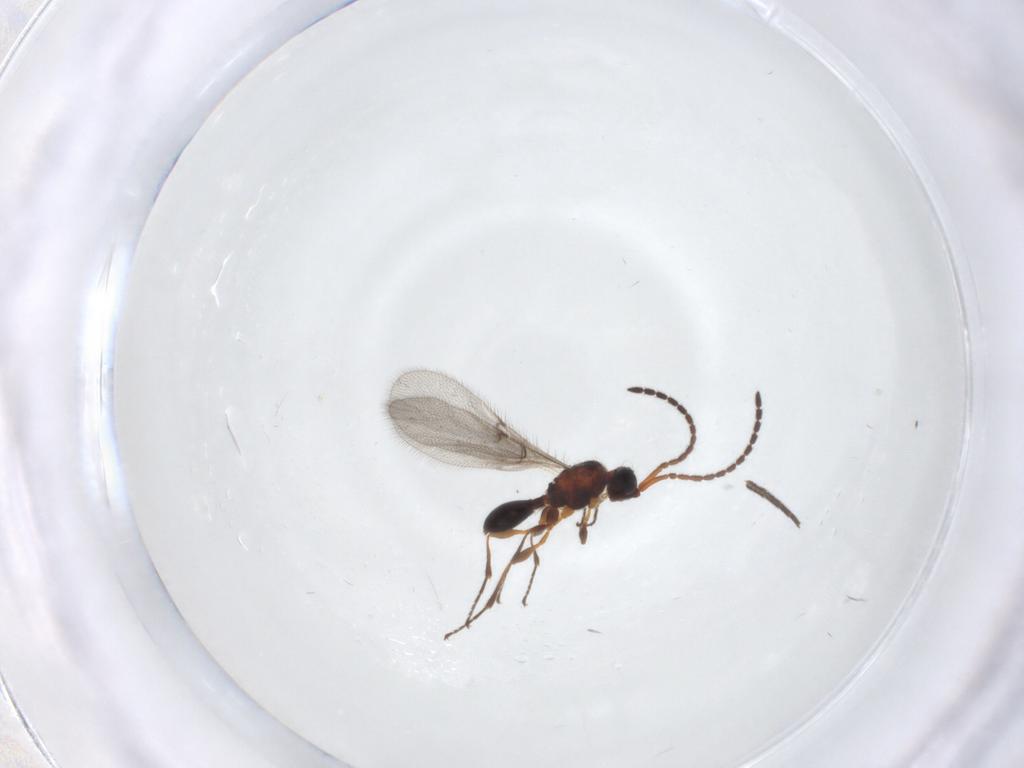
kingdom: Animalia
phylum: Arthropoda
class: Insecta
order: Hymenoptera
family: Diapriidae
